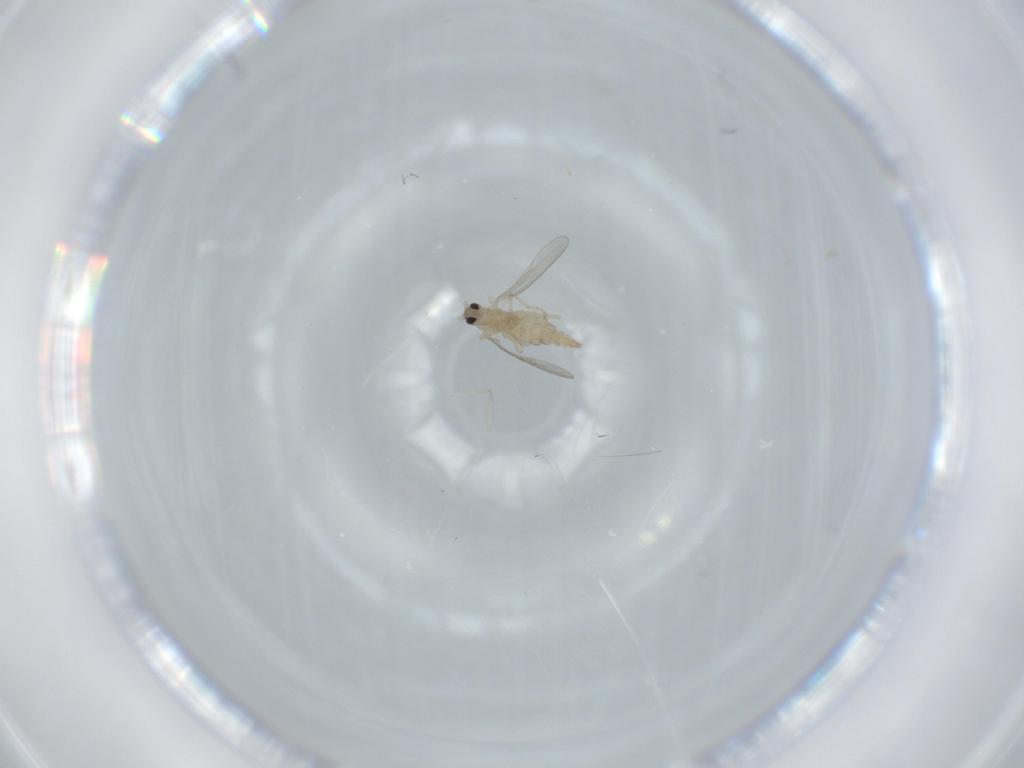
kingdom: Animalia
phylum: Arthropoda
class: Insecta
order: Diptera
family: Cecidomyiidae
